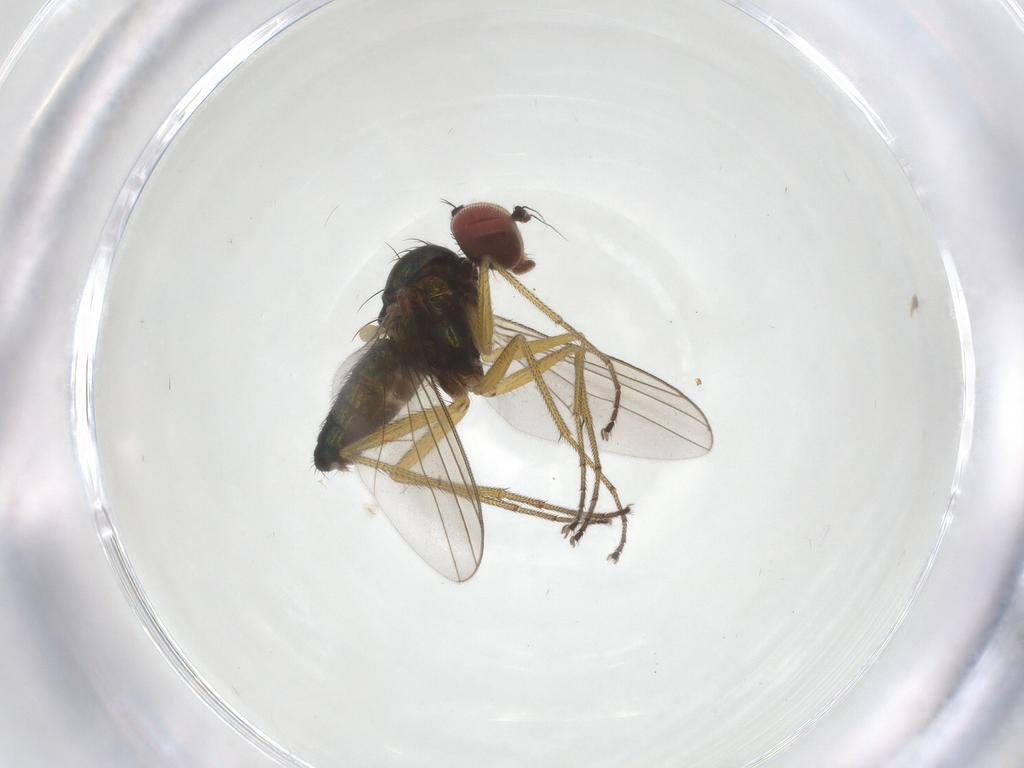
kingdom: Animalia
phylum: Arthropoda
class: Insecta
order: Diptera
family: Dolichopodidae
